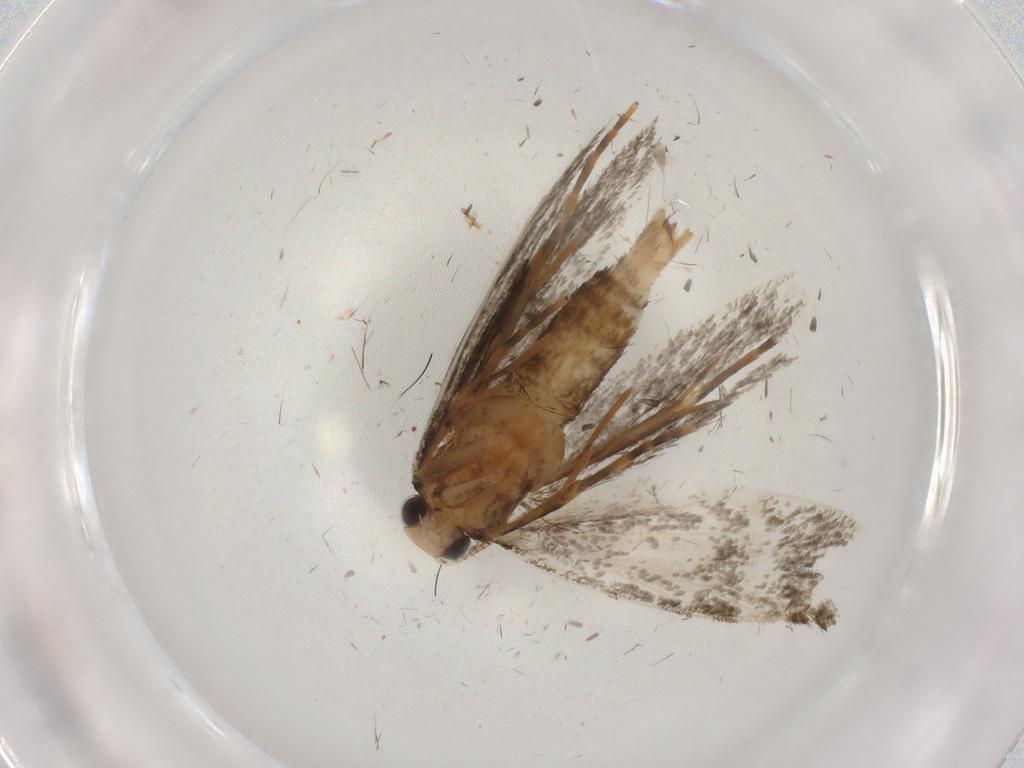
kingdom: Animalia
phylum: Arthropoda
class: Insecta
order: Lepidoptera
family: Tineidae
